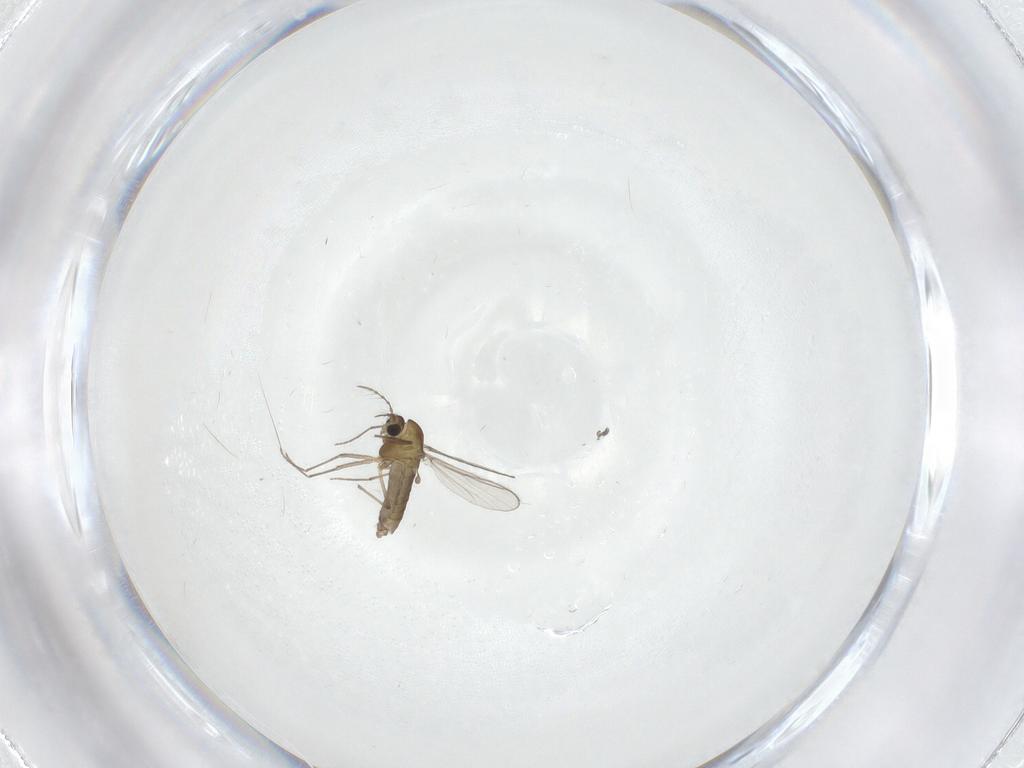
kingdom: Animalia
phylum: Arthropoda
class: Insecta
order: Diptera
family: Chironomidae
